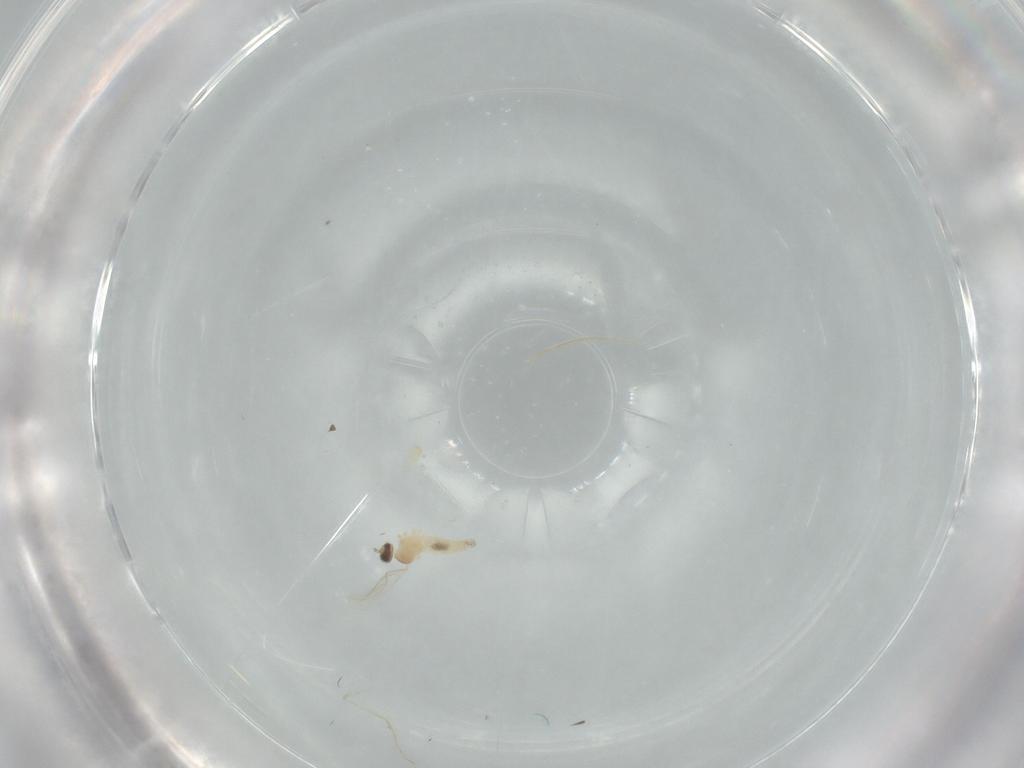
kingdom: Animalia
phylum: Arthropoda
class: Insecta
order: Diptera
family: Cecidomyiidae
